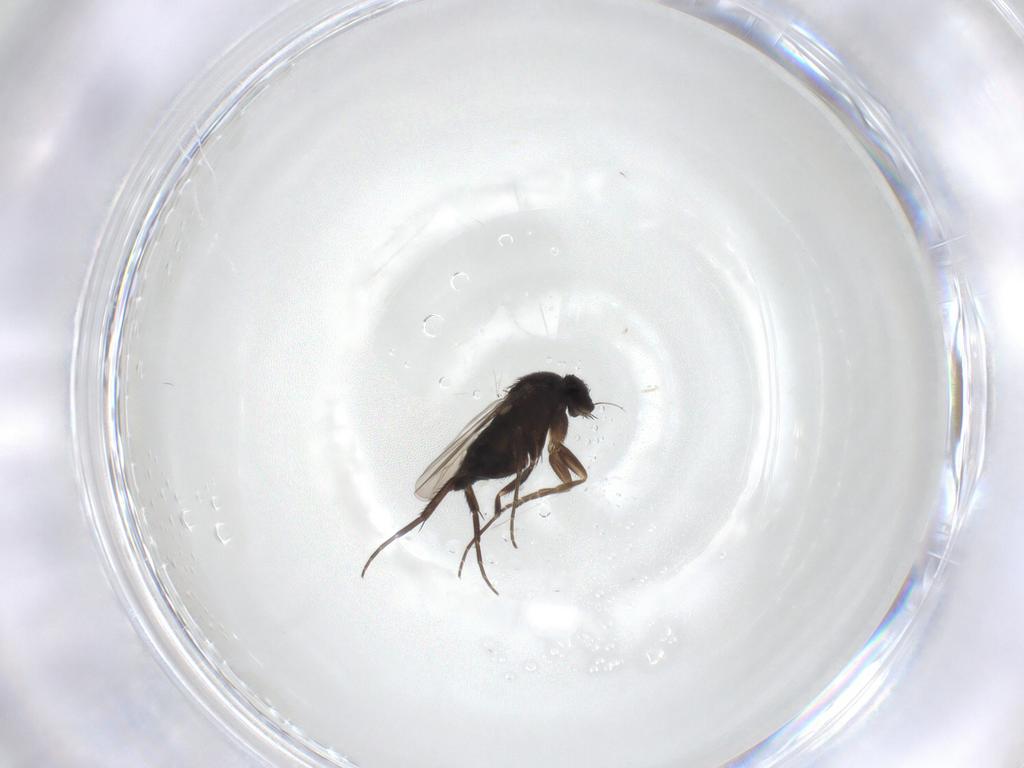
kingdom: Animalia
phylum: Arthropoda
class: Insecta
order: Diptera
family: Phoridae
